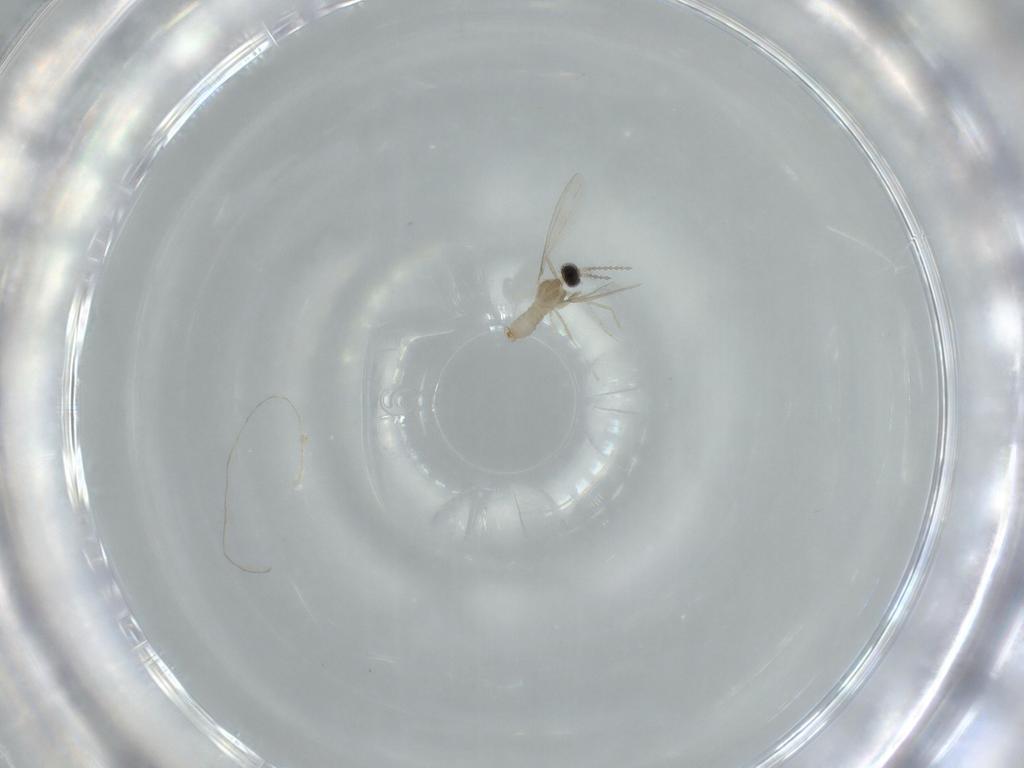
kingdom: Animalia
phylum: Arthropoda
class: Insecta
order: Diptera
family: Cecidomyiidae
